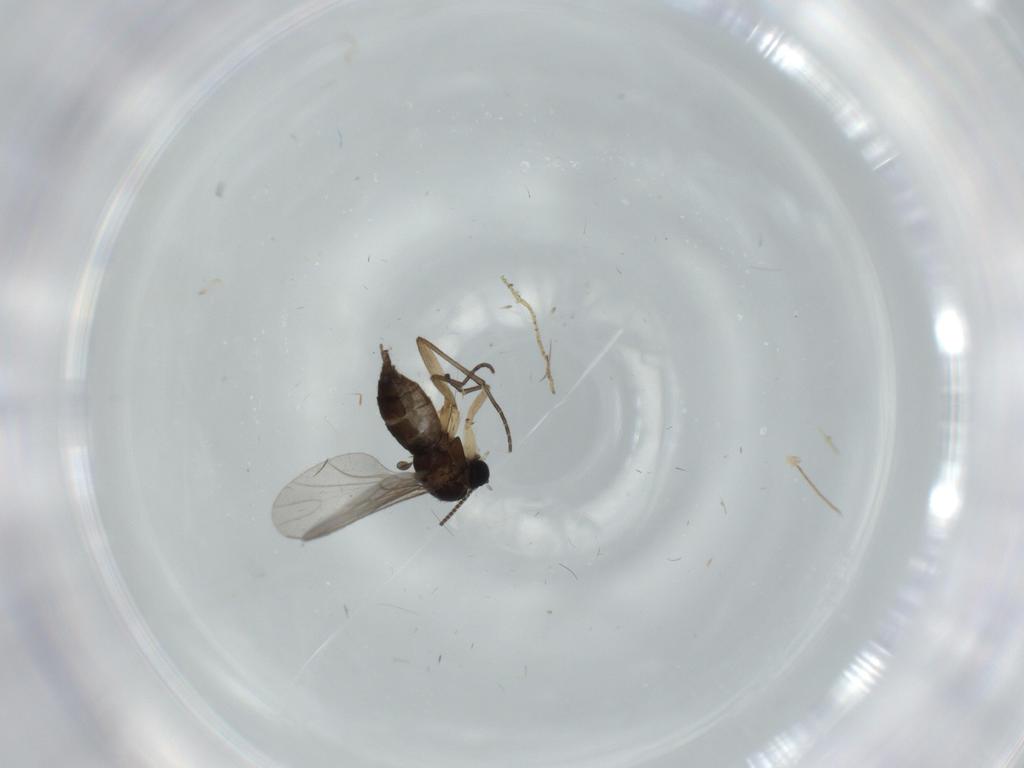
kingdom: Animalia
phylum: Arthropoda
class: Insecta
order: Diptera
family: Sciaridae
